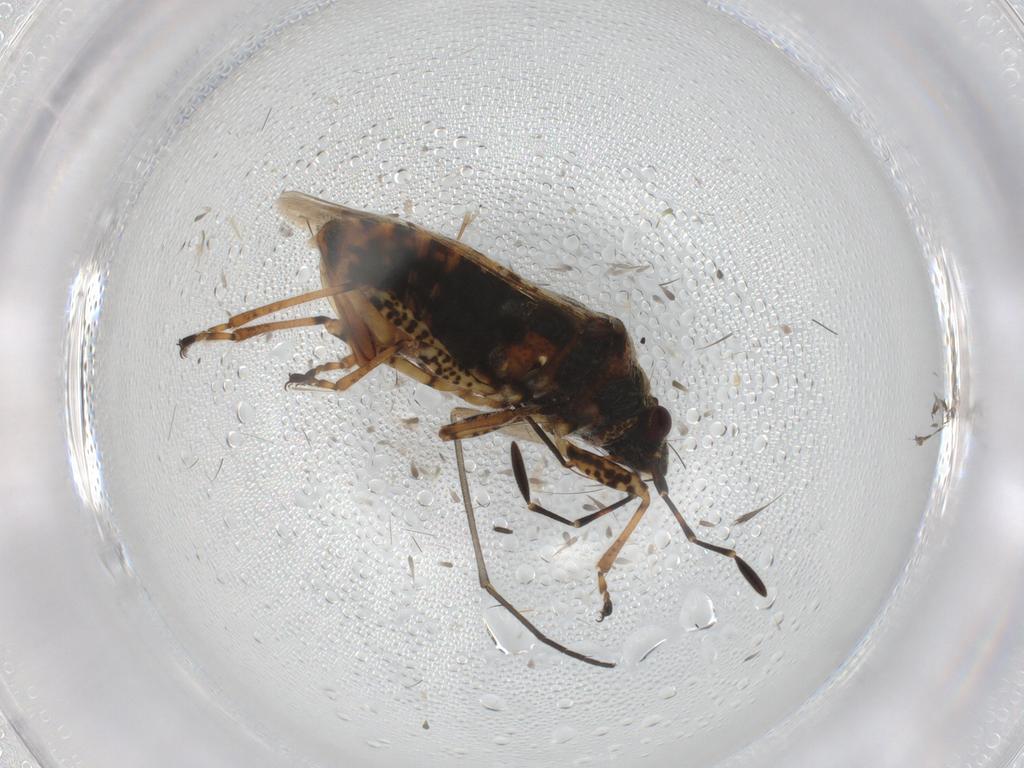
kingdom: Animalia
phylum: Arthropoda
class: Insecta
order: Hemiptera
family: Lygaeidae
